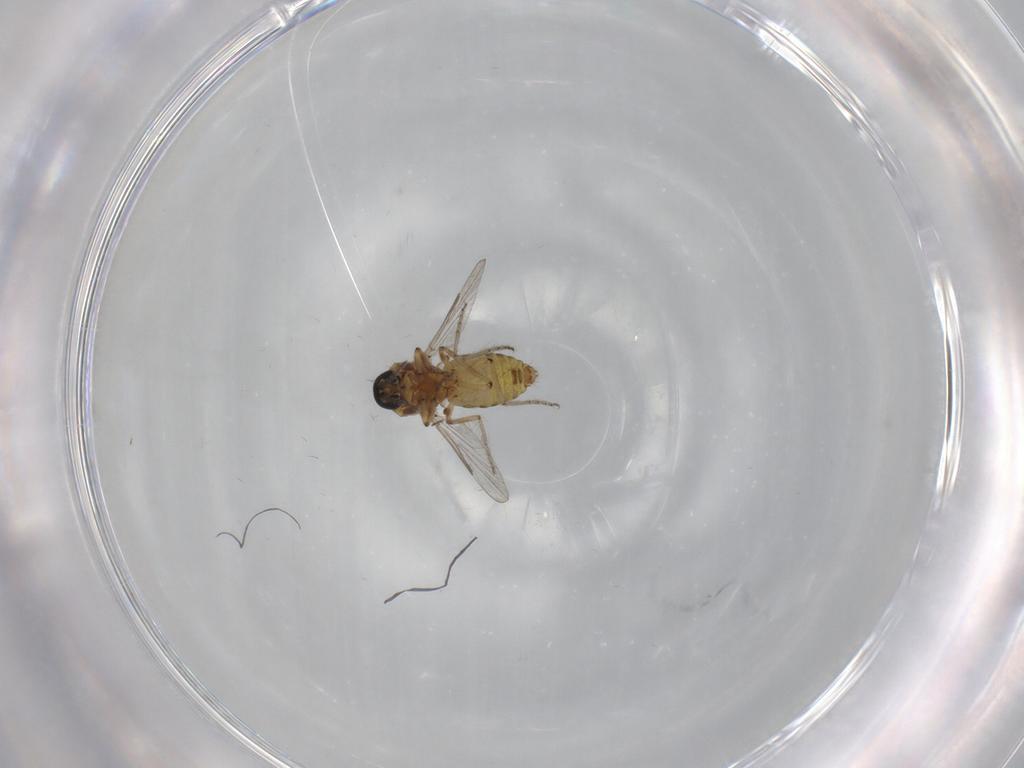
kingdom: Animalia
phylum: Arthropoda
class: Insecta
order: Diptera
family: Ceratopogonidae
